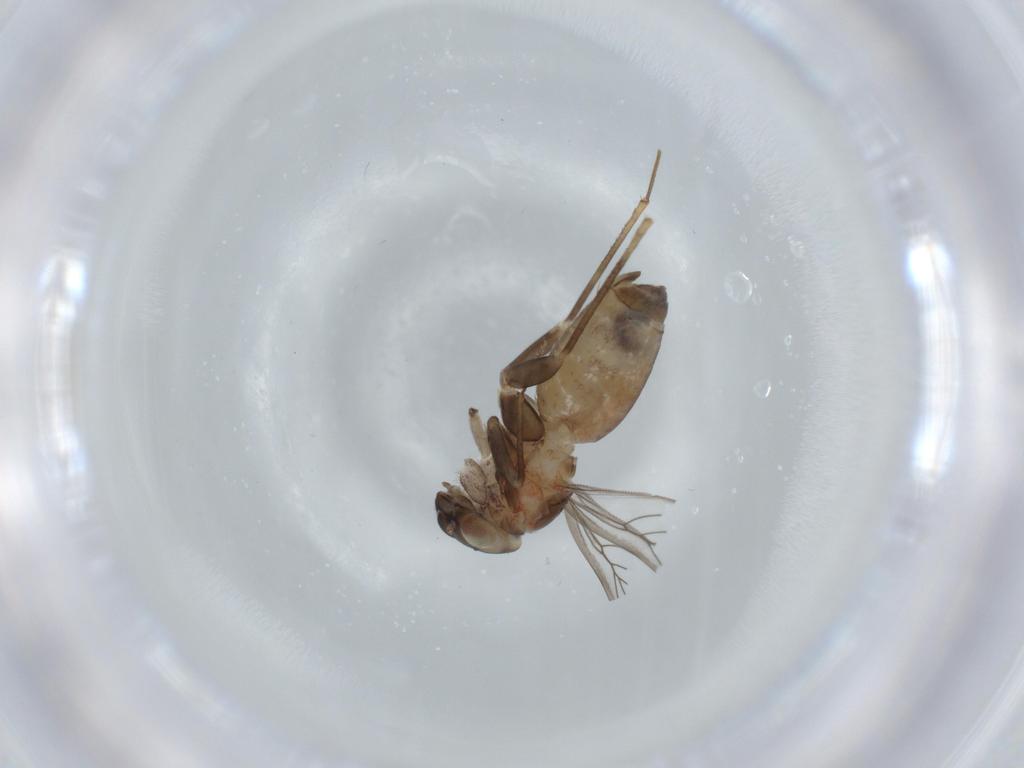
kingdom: Animalia
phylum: Arthropoda
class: Insecta
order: Psocodea
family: Lepidopsocidae
